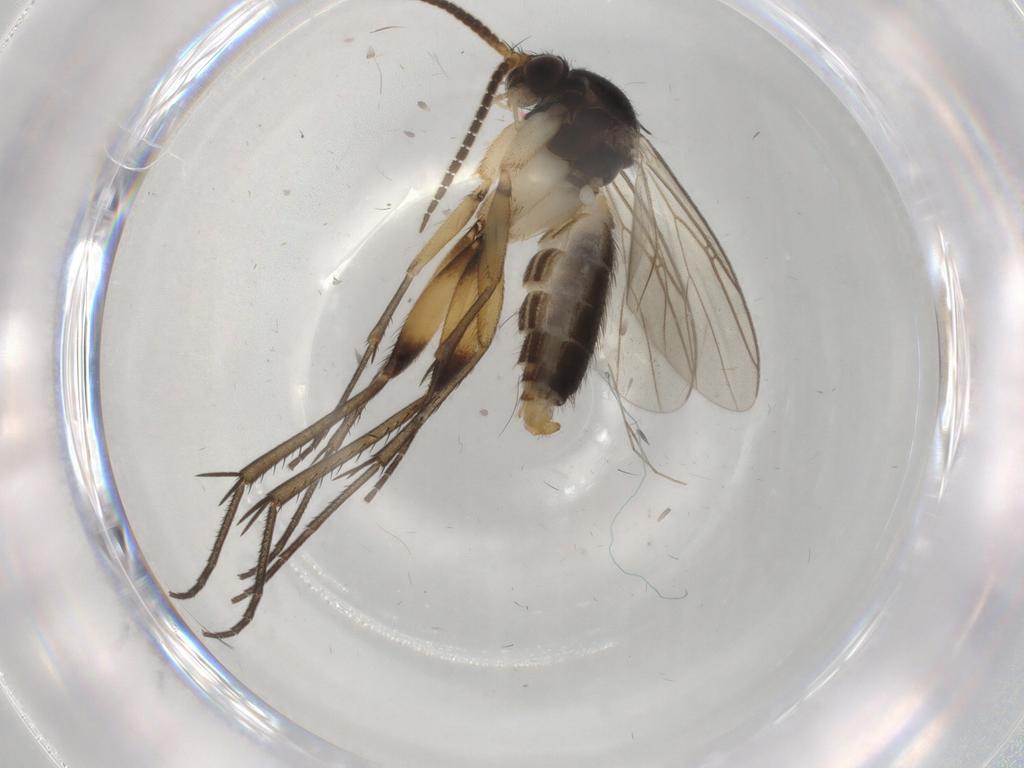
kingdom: Animalia
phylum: Arthropoda
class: Insecta
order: Diptera
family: Mycetophilidae
